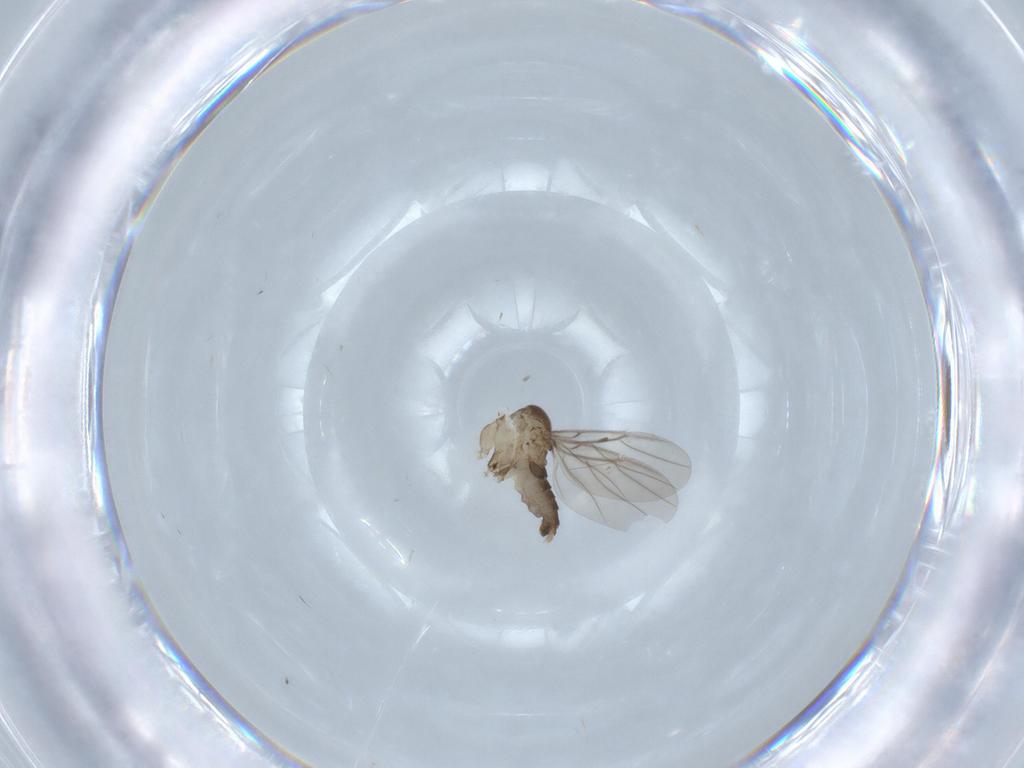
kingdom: Animalia
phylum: Arthropoda
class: Insecta
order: Diptera
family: Phoridae
